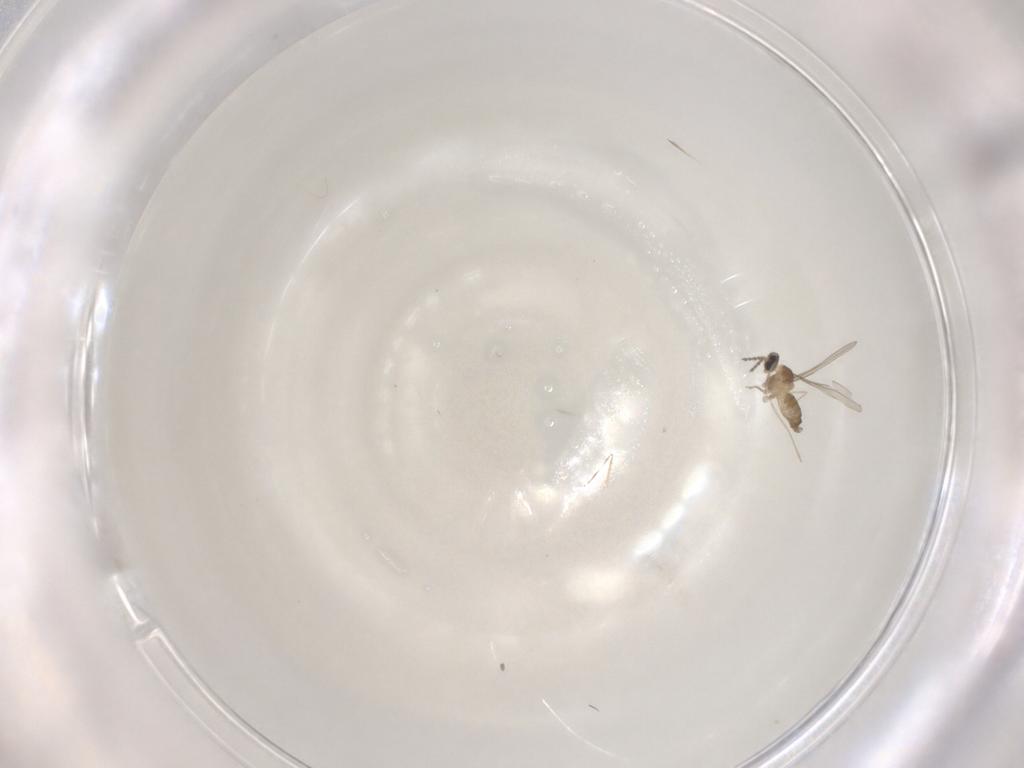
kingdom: Animalia
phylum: Arthropoda
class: Insecta
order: Diptera
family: Cecidomyiidae
